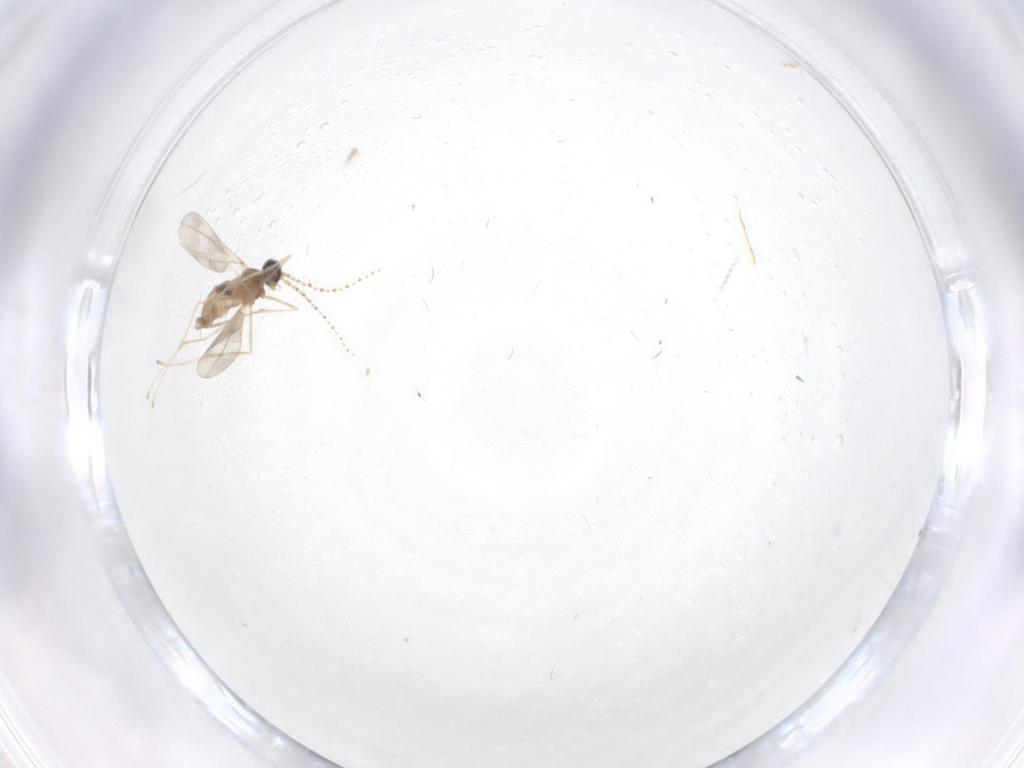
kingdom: Animalia
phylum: Arthropoda
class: Insecta
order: Diptera
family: Cecidomyiidae
